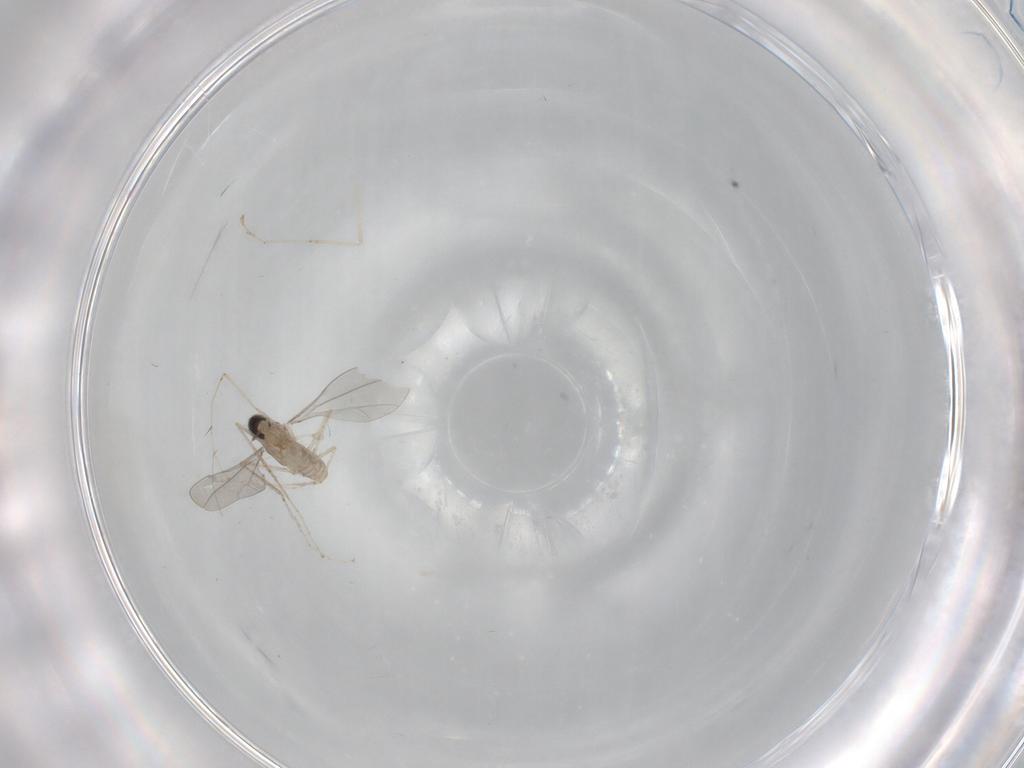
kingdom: Animalia
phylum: Arthropoda
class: Insecta
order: Diptera
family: Cecidomyiidae
